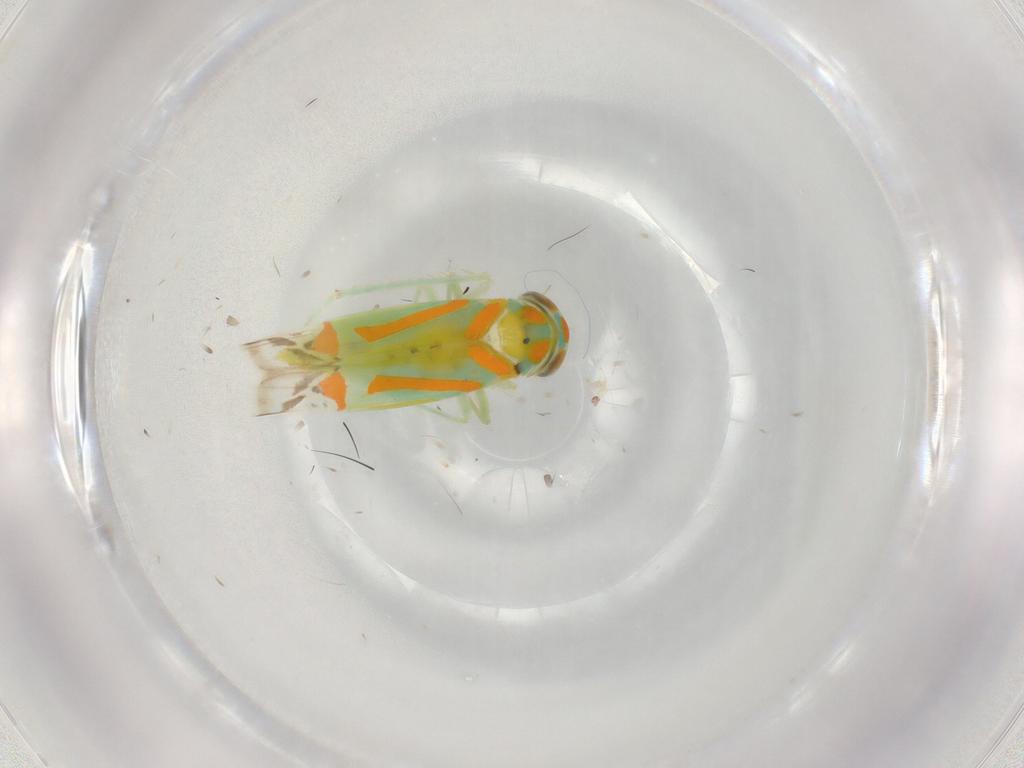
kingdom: Animalia
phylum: Arthropoda
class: Insecta
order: Hemiptera
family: Cicadellidae
